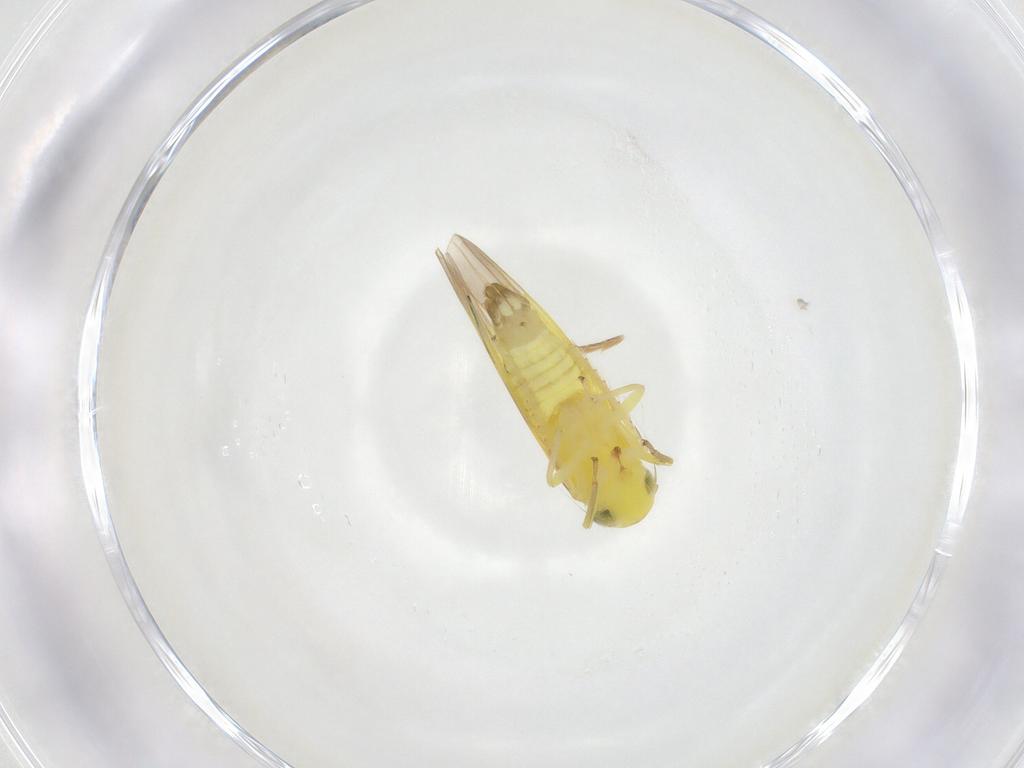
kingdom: Animalia
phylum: Arthropoda
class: Insecta
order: Hemiptera
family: Cicadellidae
